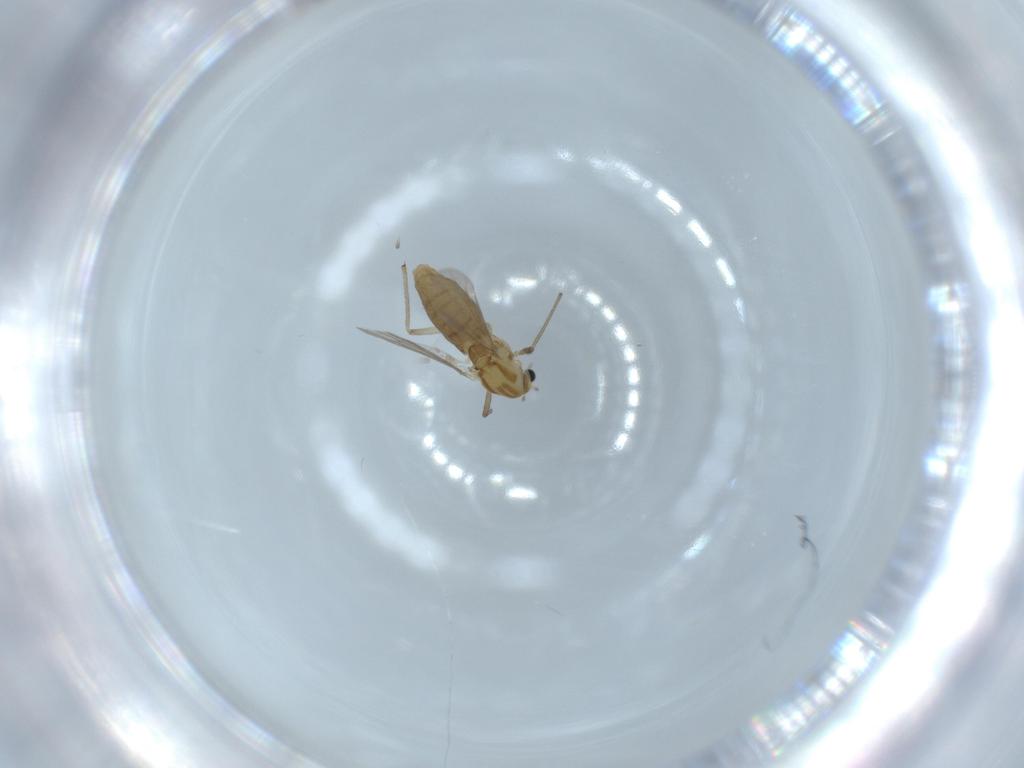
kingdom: Animalia
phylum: Arthropoda
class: Insecta
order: Diptera
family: Chironomidae
